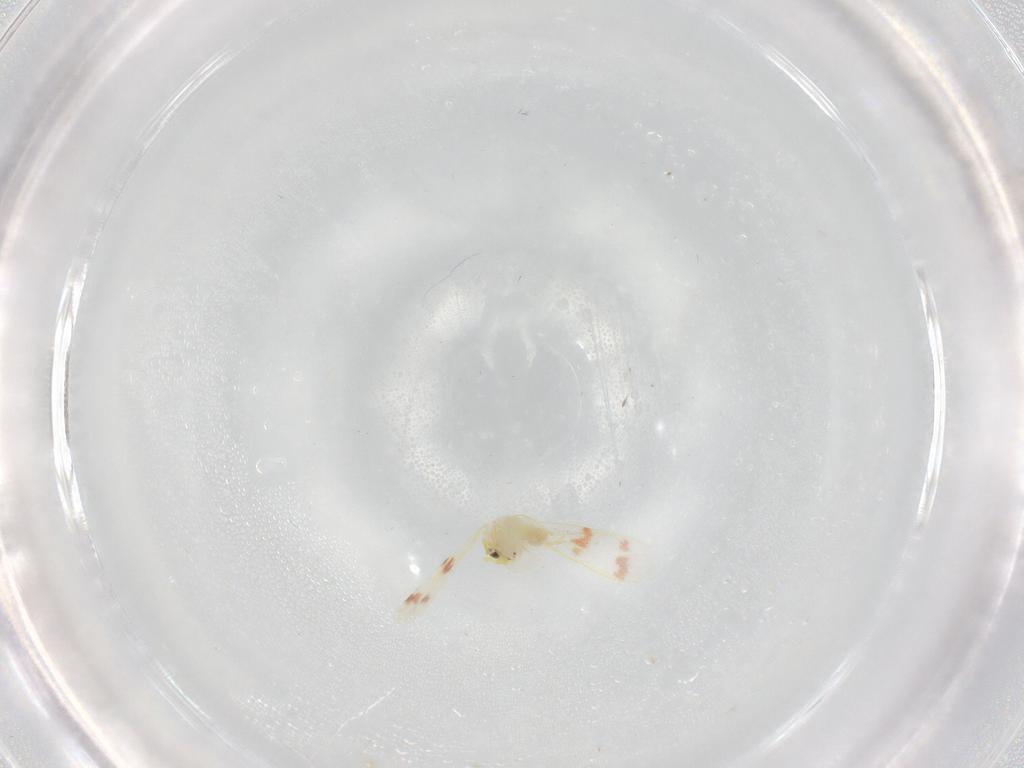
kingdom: Animalia
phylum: Arthropoda
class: Insecta
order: Hemiptera
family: Aleyrodidae
